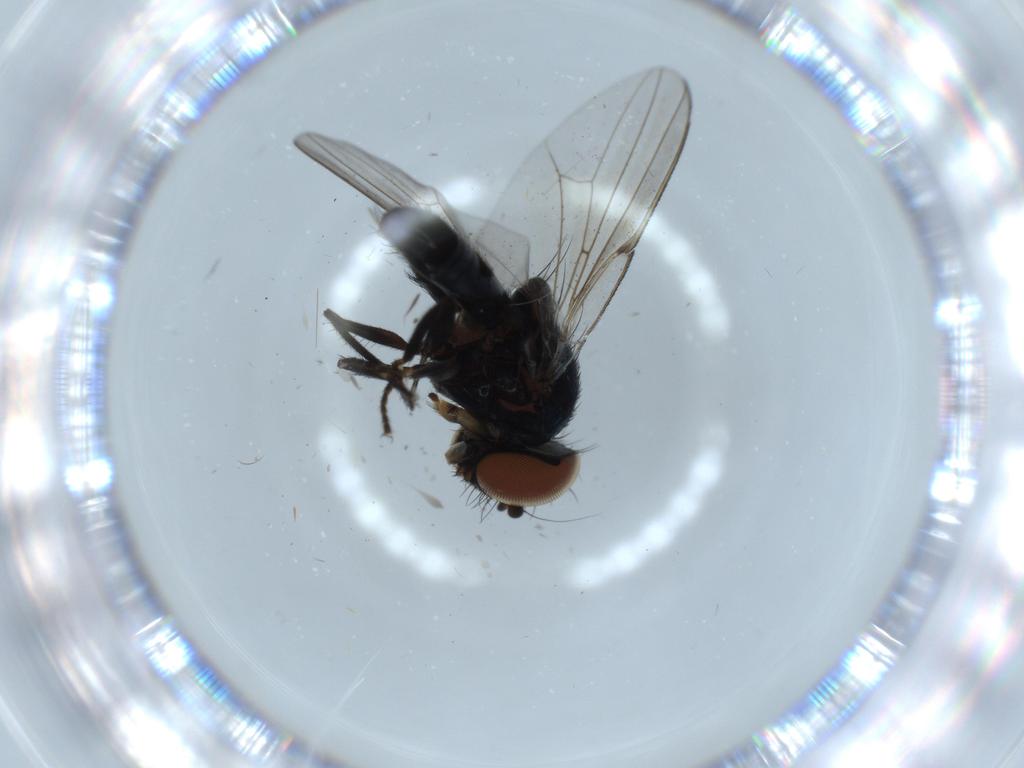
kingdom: Animalia
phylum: Arthropoda
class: Insecta
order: Diptera
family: Milichiidae
